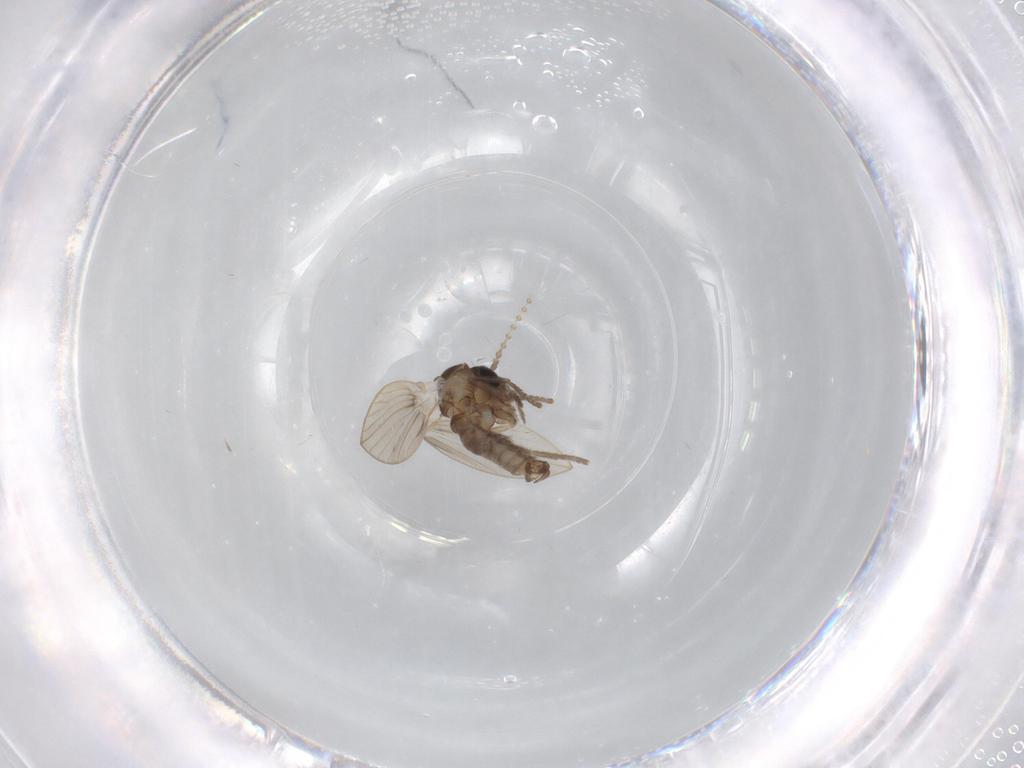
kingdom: Animalia
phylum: Arthropoda
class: Insecta
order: Diptera
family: Psychodidae
